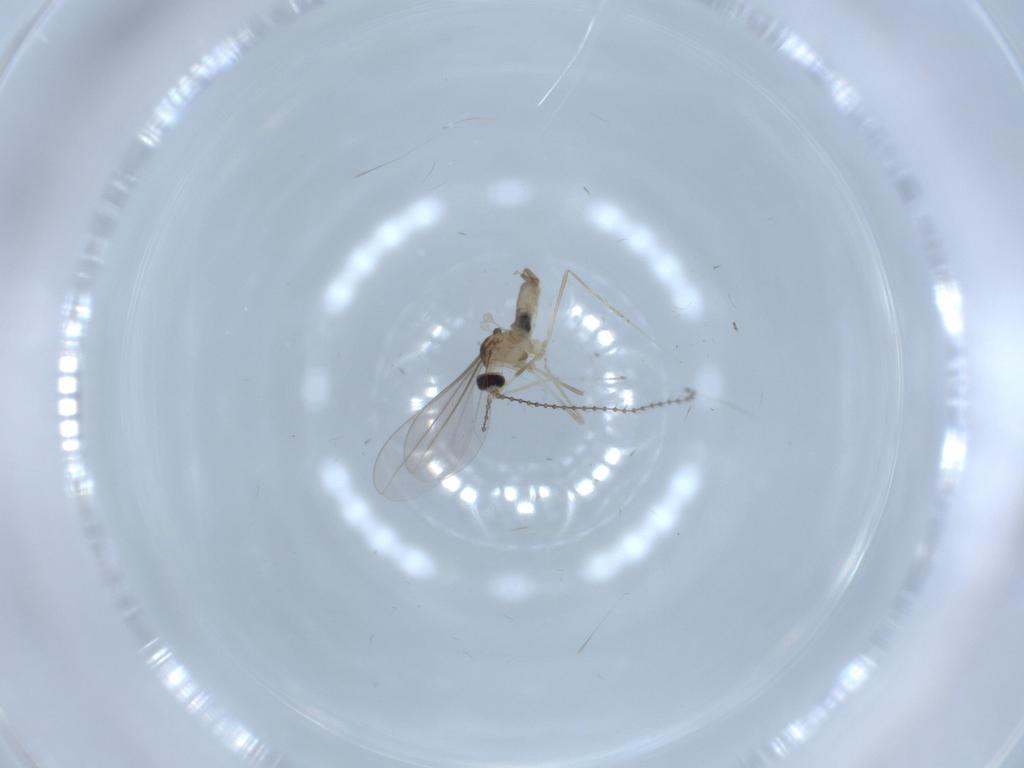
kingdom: Animalia
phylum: Arthropoda
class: Insecta
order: Diptera
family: Cecidomyiidae
